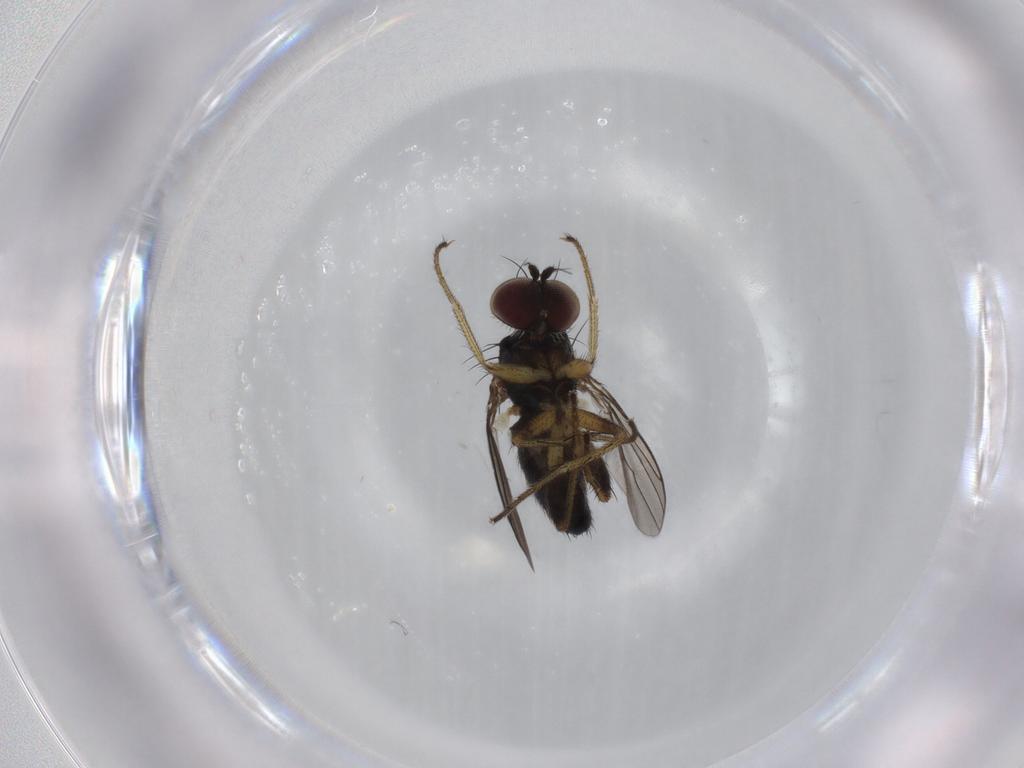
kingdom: Animalia
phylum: Arthropoda
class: Insecta
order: Diptera
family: Dolichopodidae
